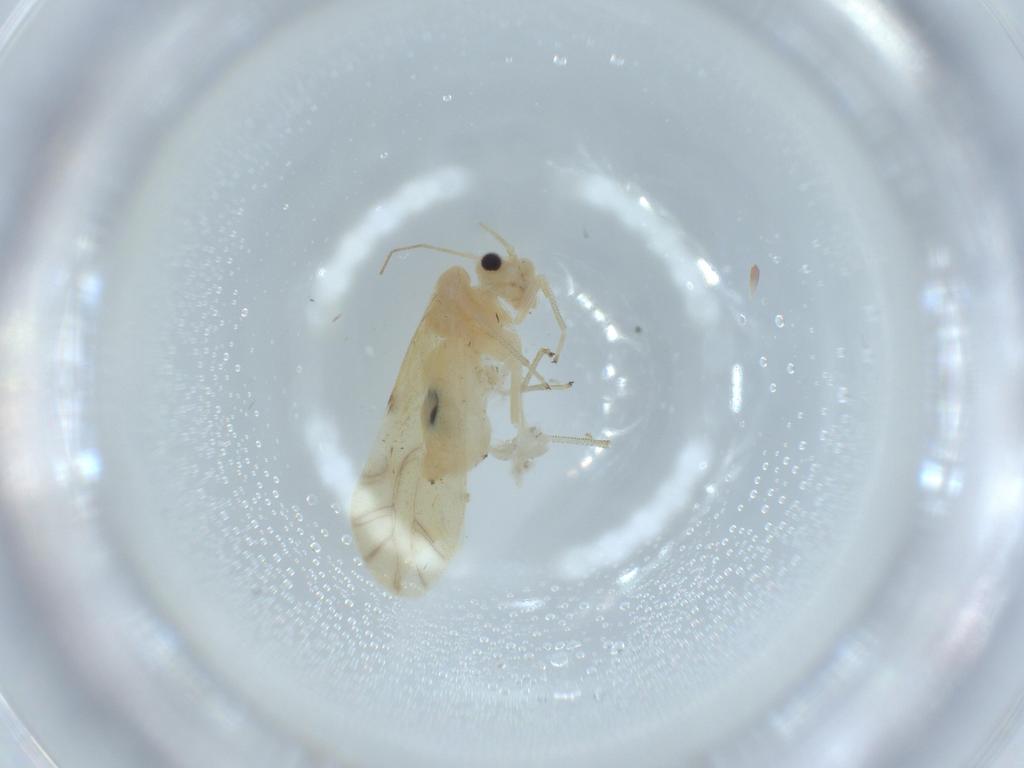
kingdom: Animalia
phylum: Arthropoda
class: Insecta
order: Psocodea
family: Caeciliusidae
